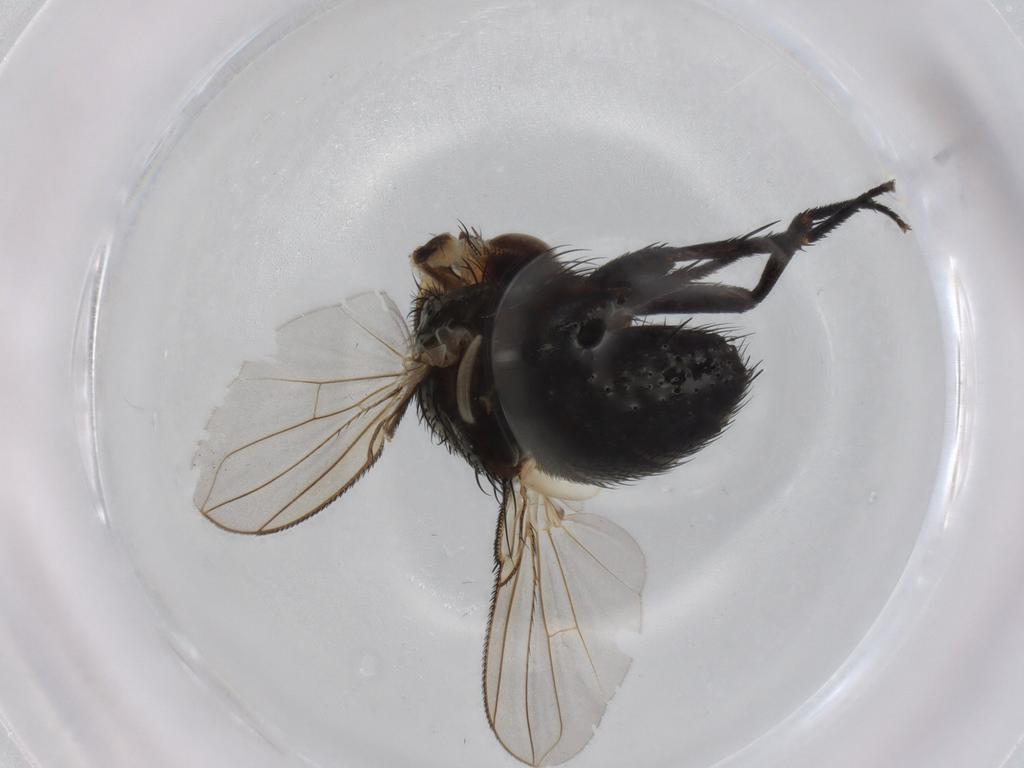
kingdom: Animalia
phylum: Arthropoda
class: Insecta
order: Diptera
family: Tachinidae
